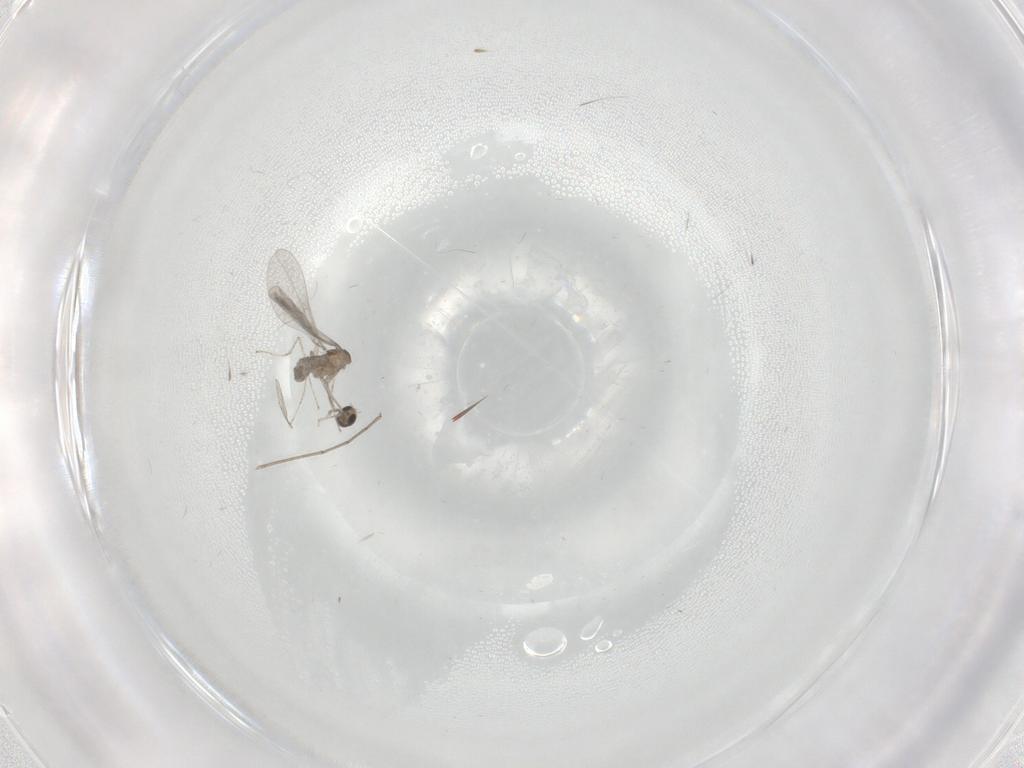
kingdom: Animalia
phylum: Arthropoda
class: Insecta
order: Diptera
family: Cecidomyiidae
